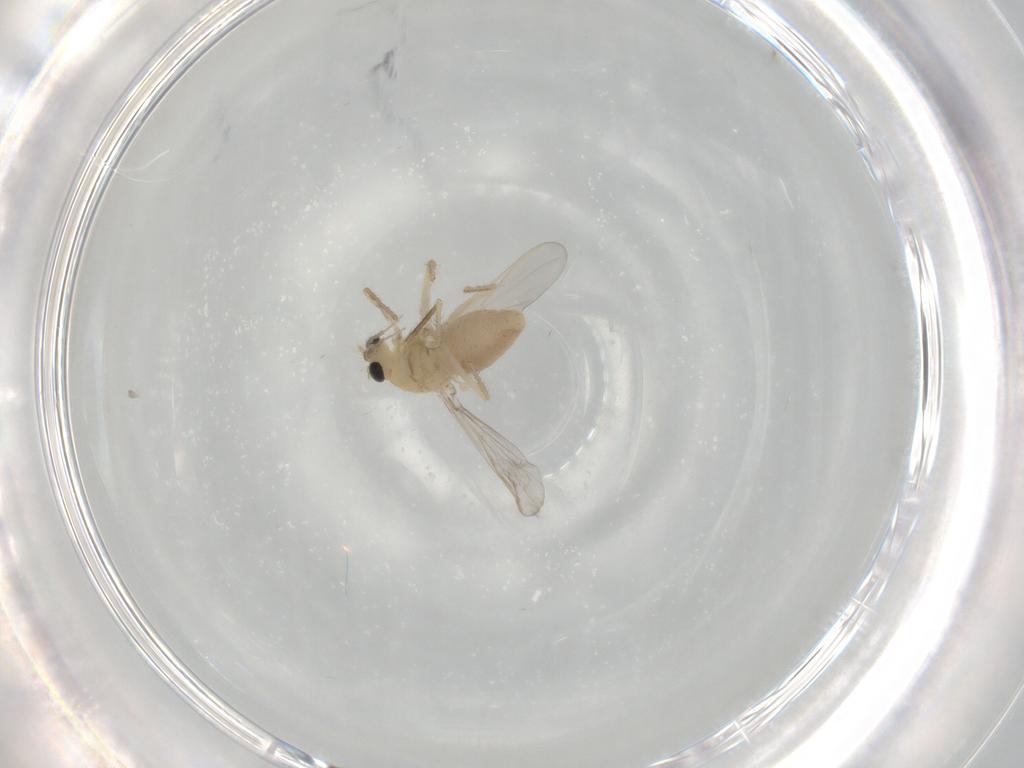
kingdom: Animalia
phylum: Arthropoda
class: Insecta
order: Diptera
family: Chironomidae
